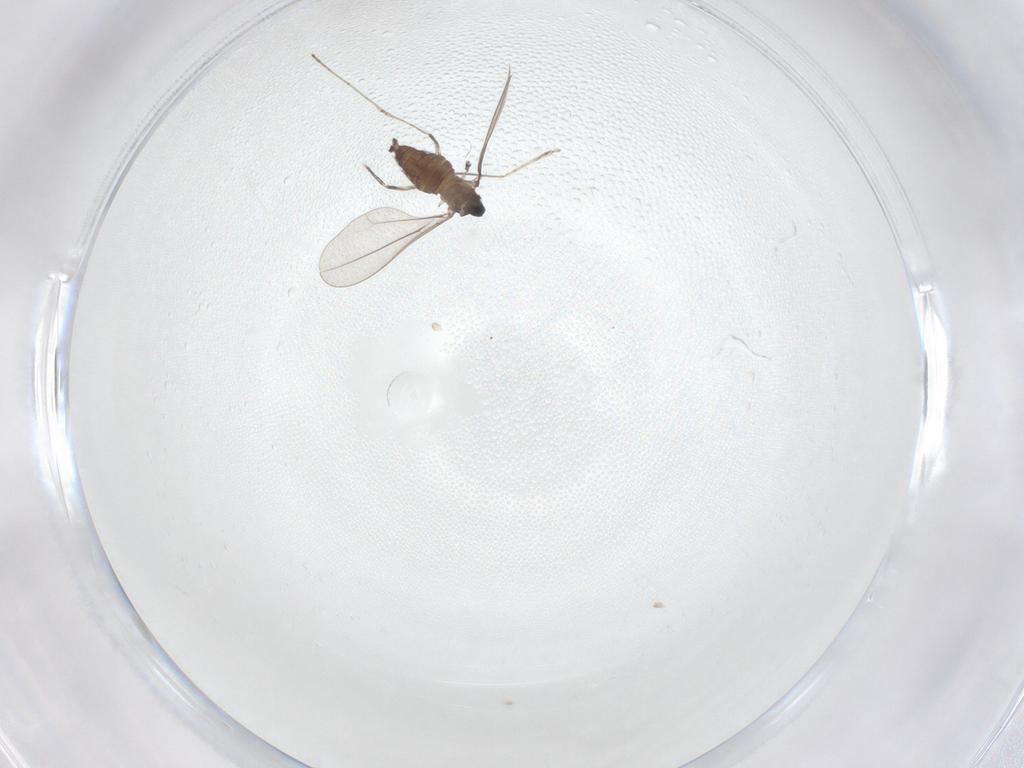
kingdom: Animalia
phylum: Arthropoda
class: Insecta
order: Diptera
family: Cecidomyiidae
